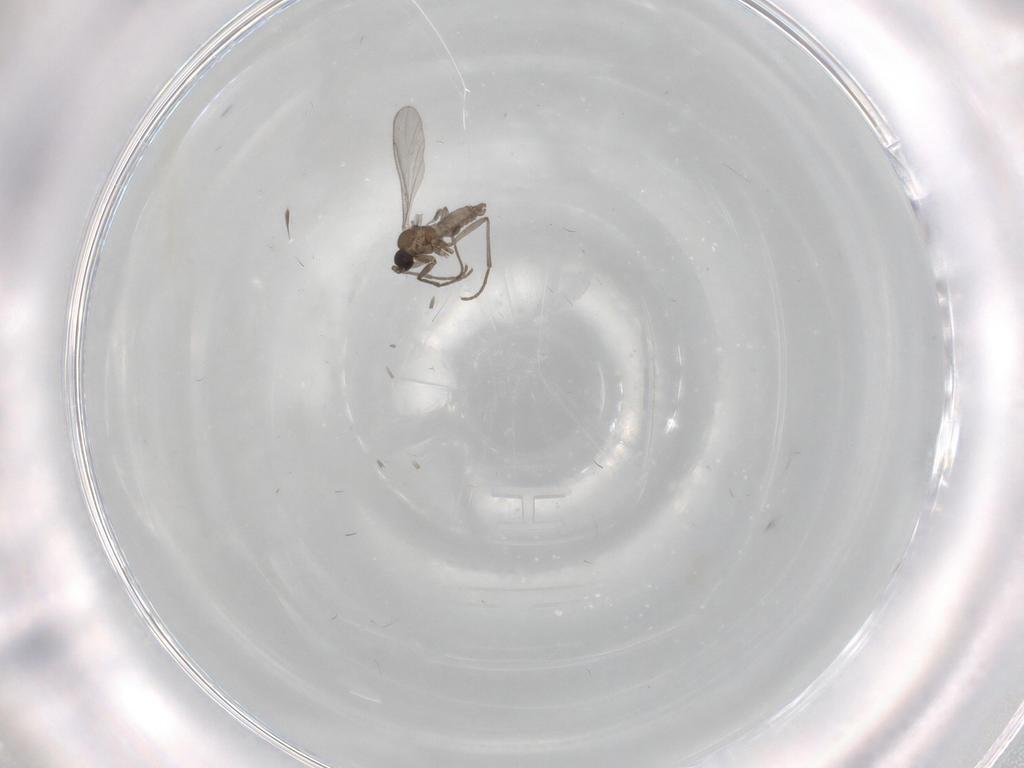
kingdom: Animalia
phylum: Arthropoda
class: Insecta
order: Diptera
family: Sciaridae
